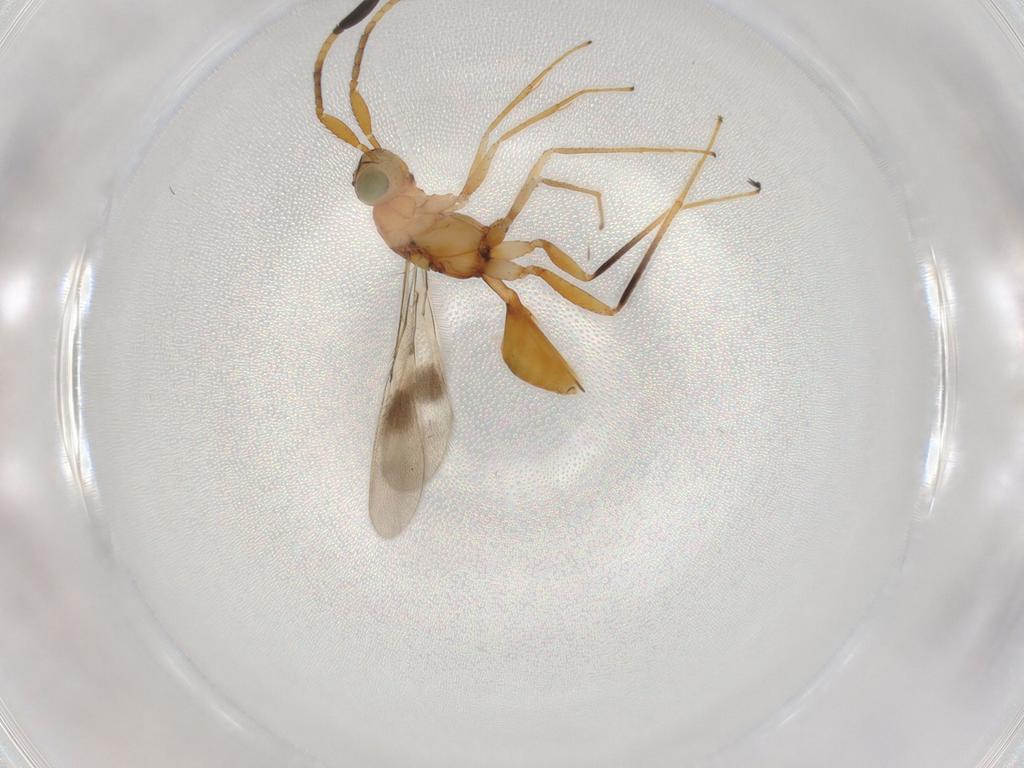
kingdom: Animalia
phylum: Arthropoda
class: Insecta
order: Hymenoptera
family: Mymaridae
